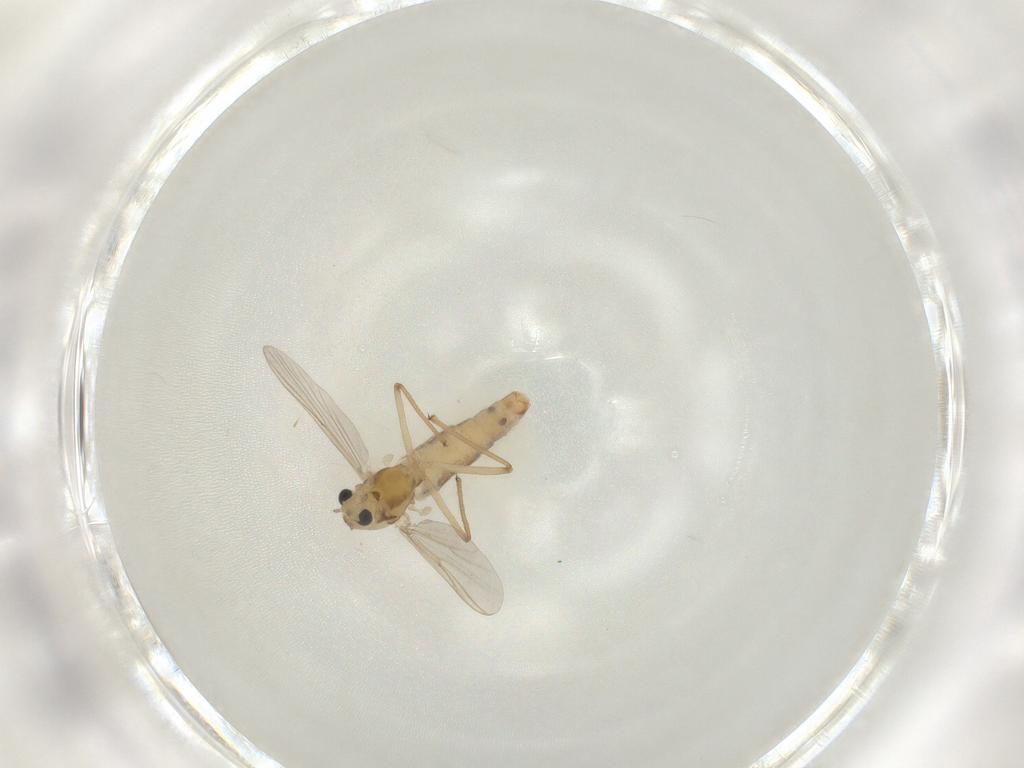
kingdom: Animalia
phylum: Arthropoda
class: Insecta
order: Diptera
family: Chironomidae
